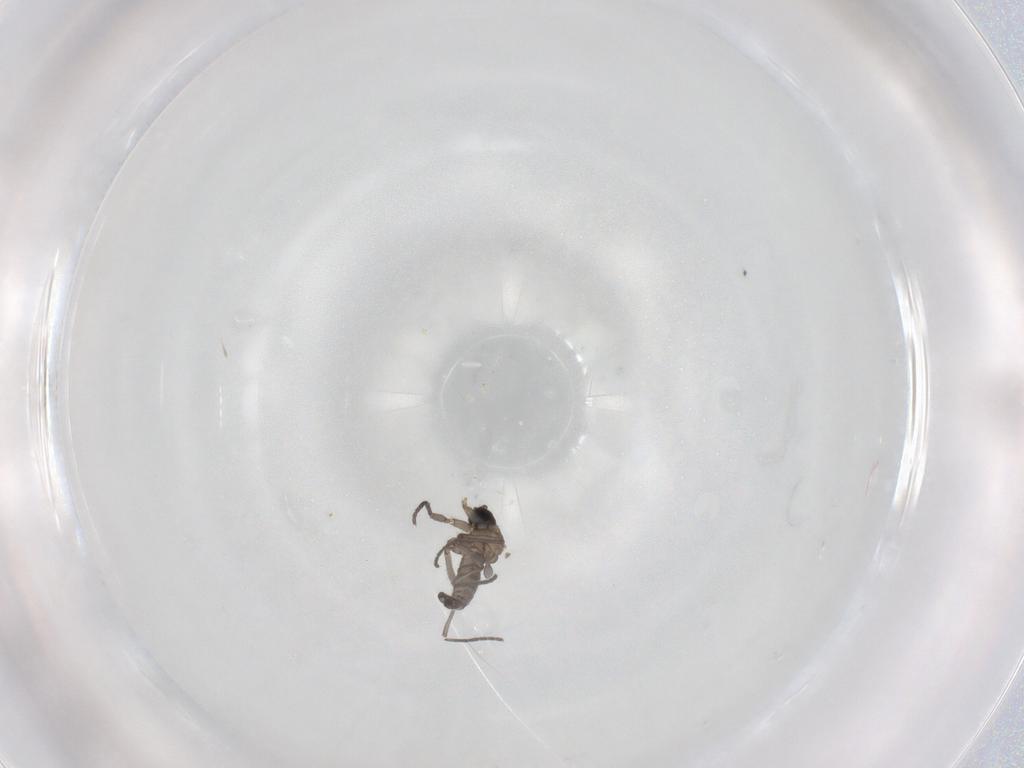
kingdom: Animalia
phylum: Arthropoda
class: Insecta
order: Diptera
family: Sciaridae
